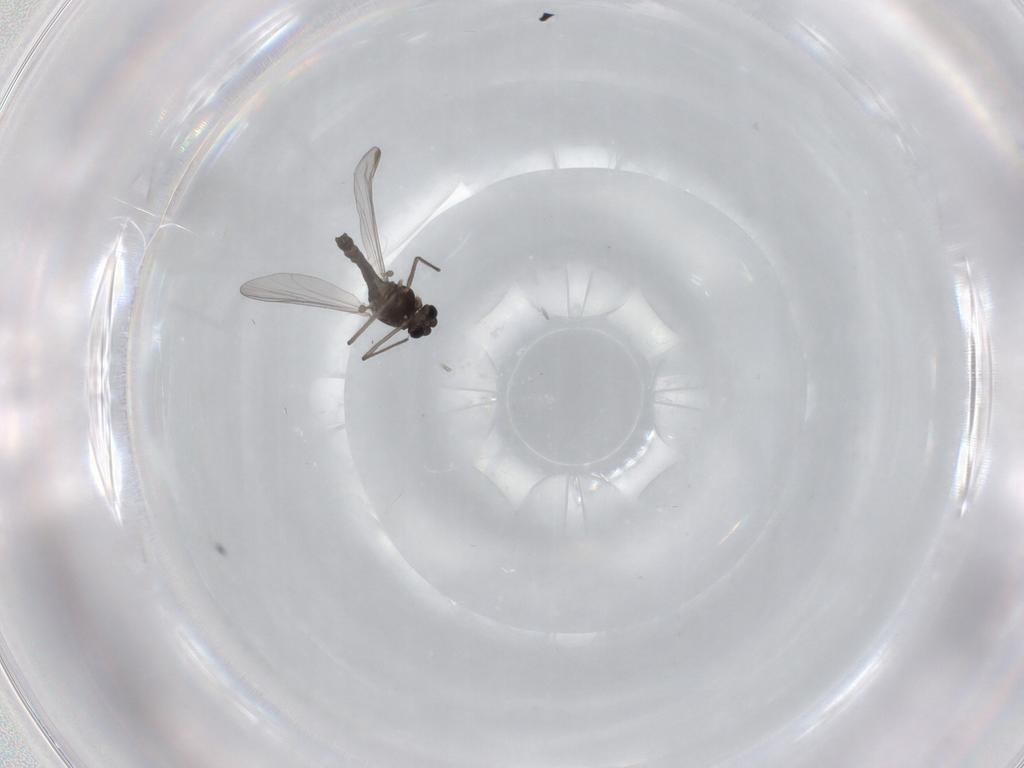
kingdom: Animalia
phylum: Arthropoda
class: Insecta
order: Diptera
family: Chironomidae
